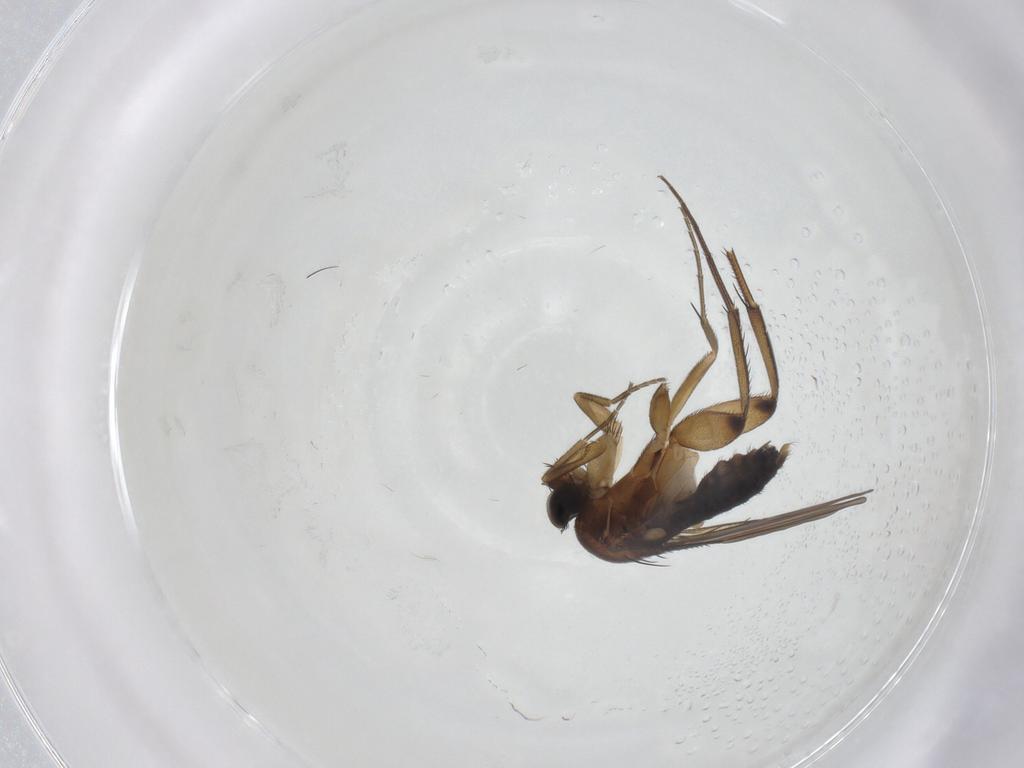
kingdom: Animalia
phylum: Arthropoda
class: Insecta
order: Diptera
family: Phoridae
